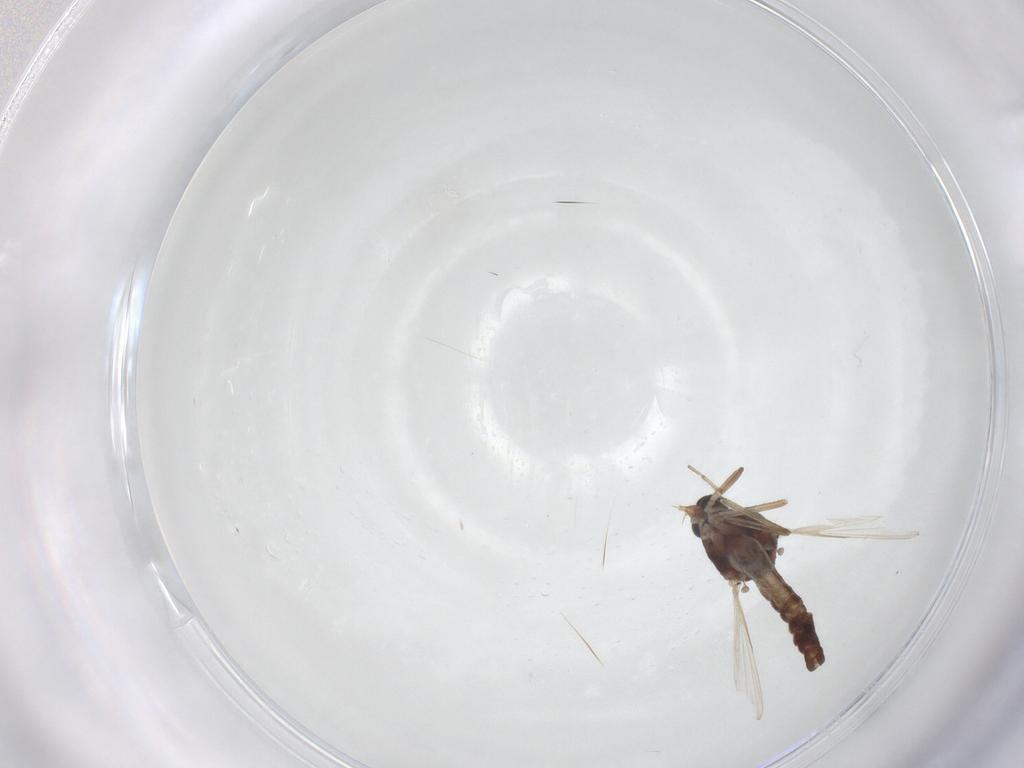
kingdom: Animalia
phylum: Arthropoda
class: Insecta
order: Diptera
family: Ceratopogonidae
